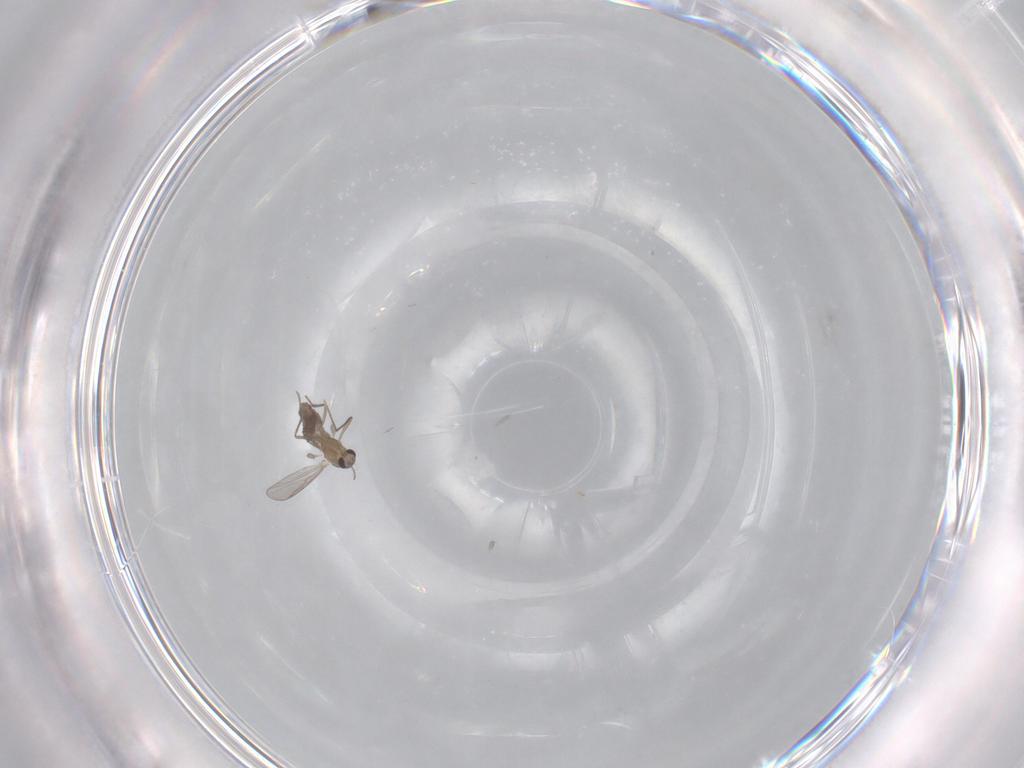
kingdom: Animalia
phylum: Arthropoda
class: Insecta
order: Diptera
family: Chironomidae
